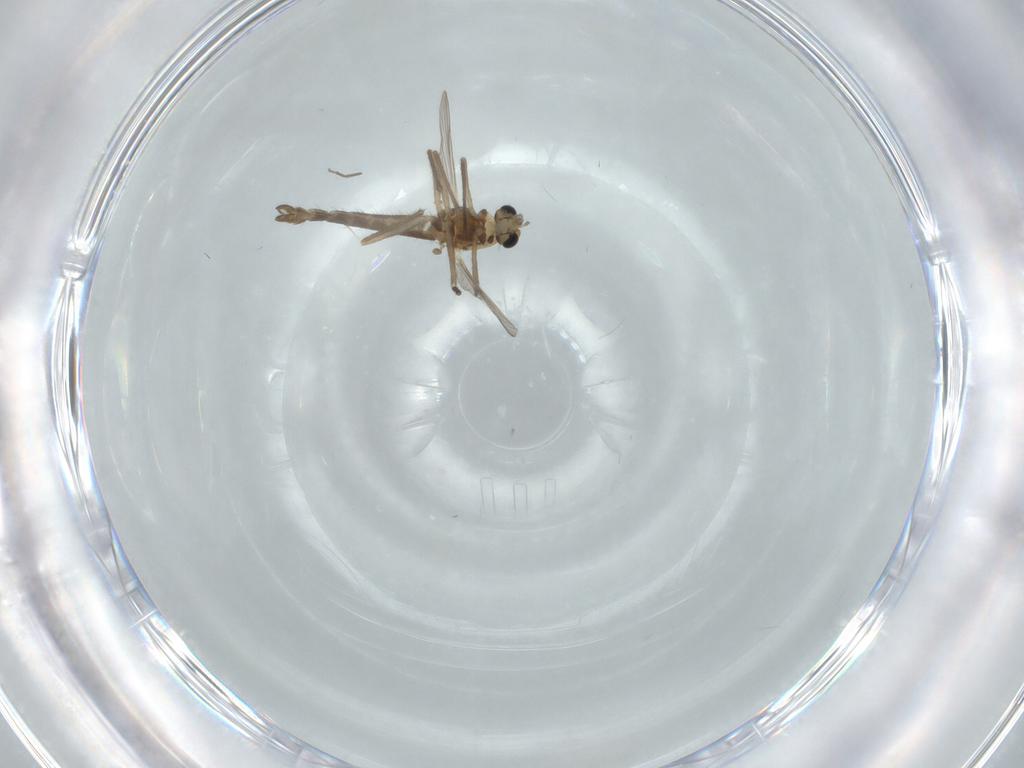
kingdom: Animalia
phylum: Arthropoda
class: Insecta
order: Diptera
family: Chironomidae
